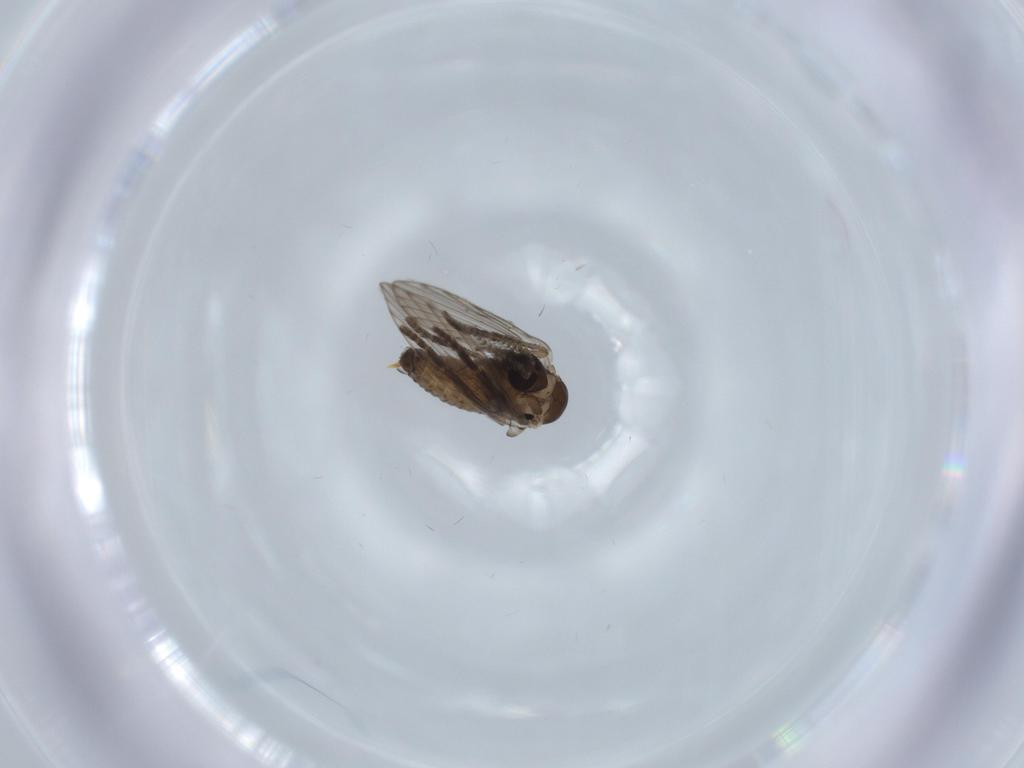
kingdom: Animalia
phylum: Arthropoda
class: Insecta
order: Diptera
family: Psychodidae
